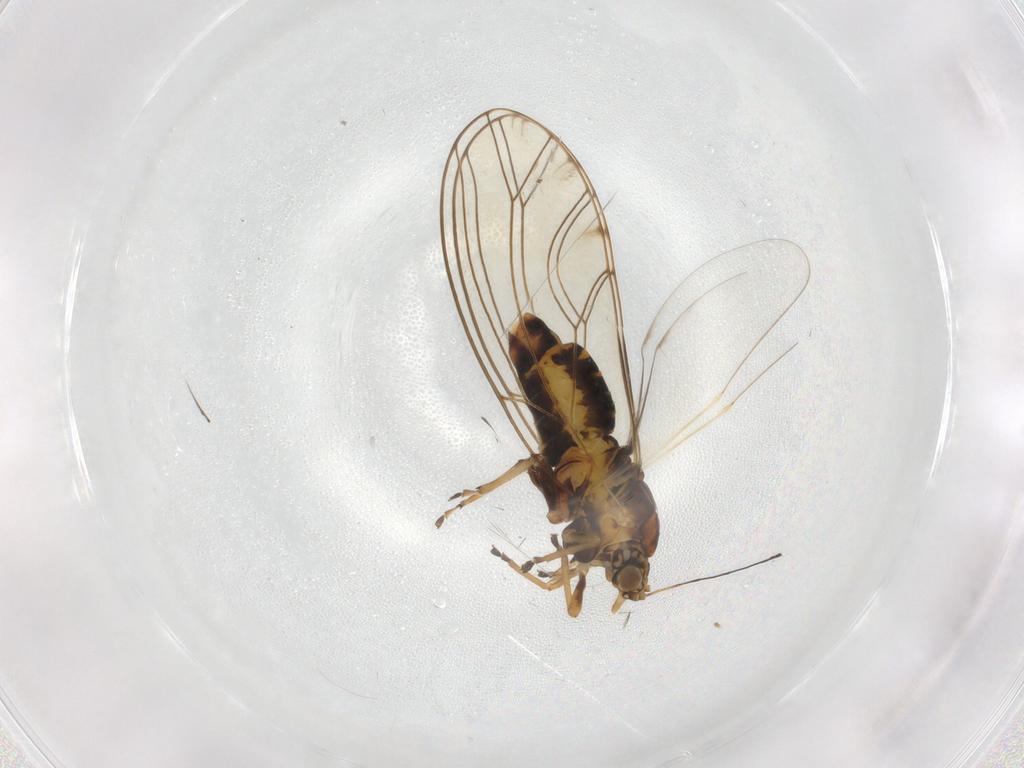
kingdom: Animalia
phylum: Arthropoda
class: Insecta
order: Hemiptera
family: Triozidae
